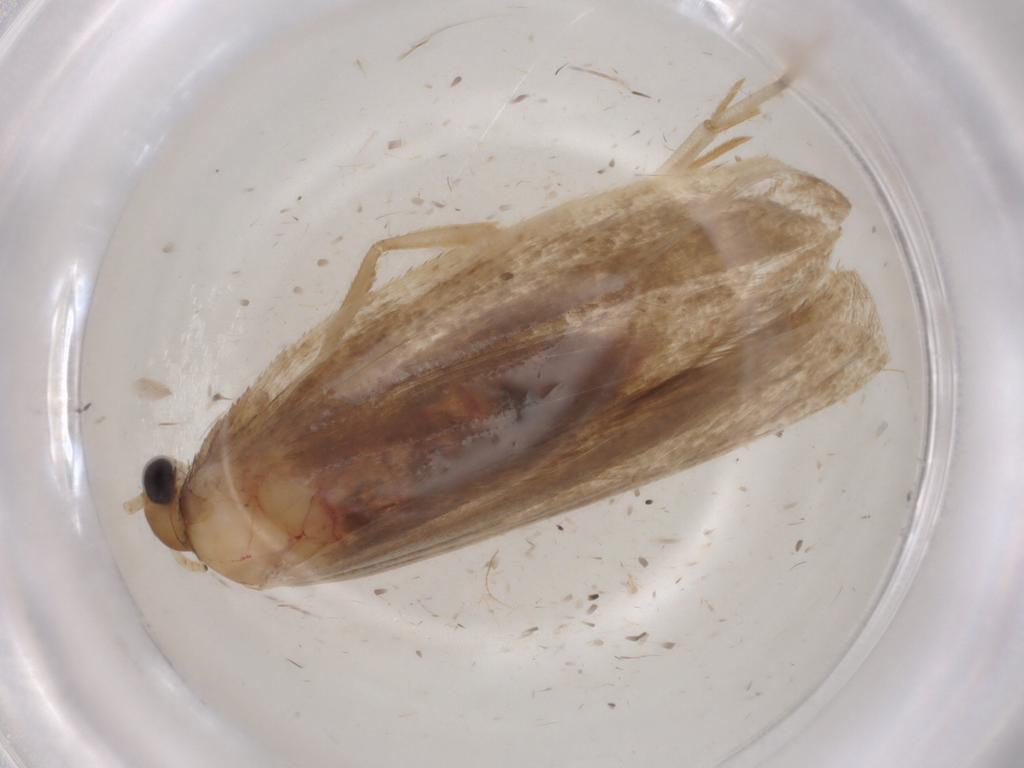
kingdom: Animalia
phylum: Arthropoda
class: Insecta
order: Lepidoptera
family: Lecithoceridae
